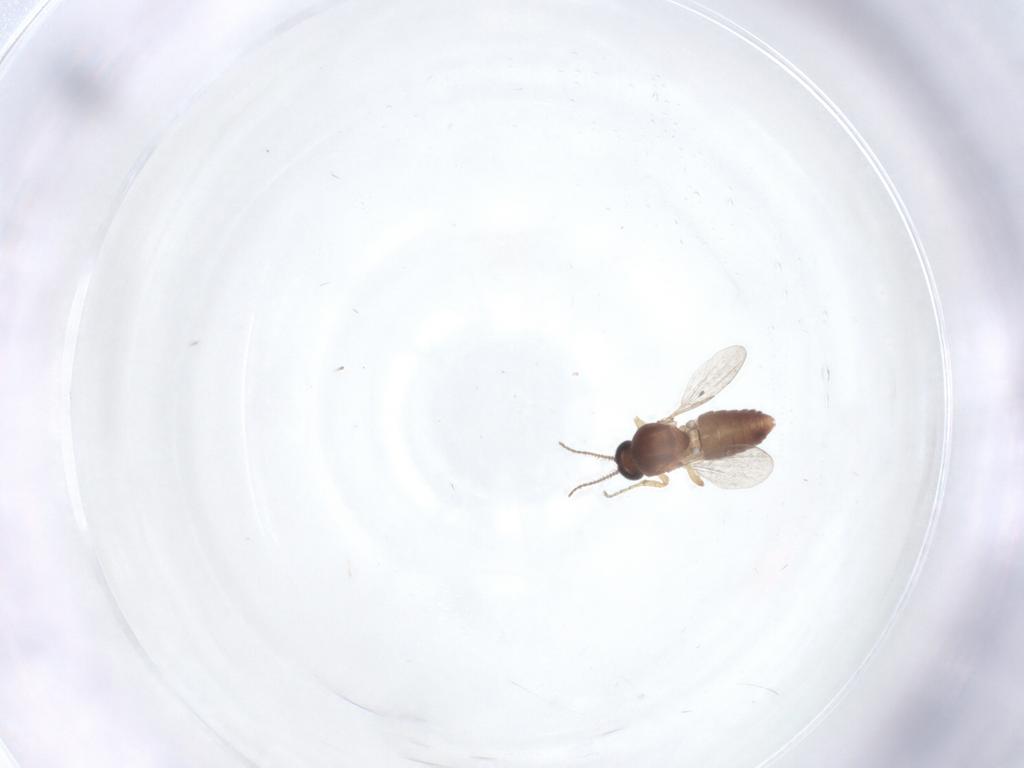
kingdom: Animalia
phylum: Arthropoda
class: Insecta
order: Diptera
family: Ceratopogonidae
